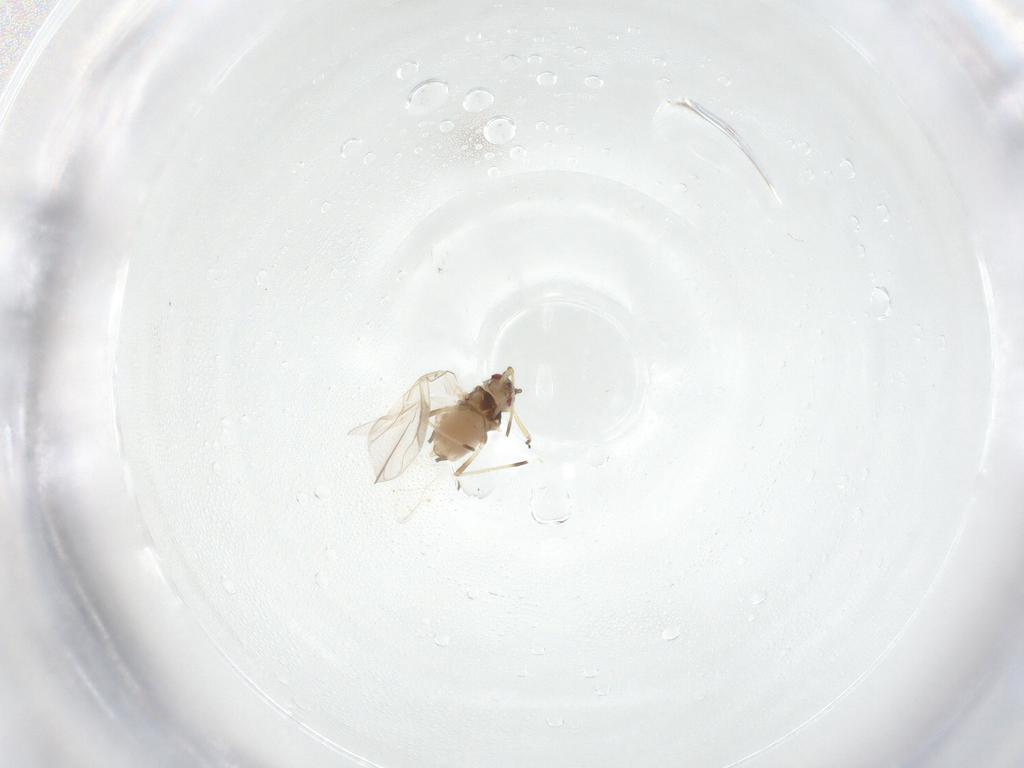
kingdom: Animalia
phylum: Arthropoda
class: Insecta
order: Hemiptera
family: Aphididae
